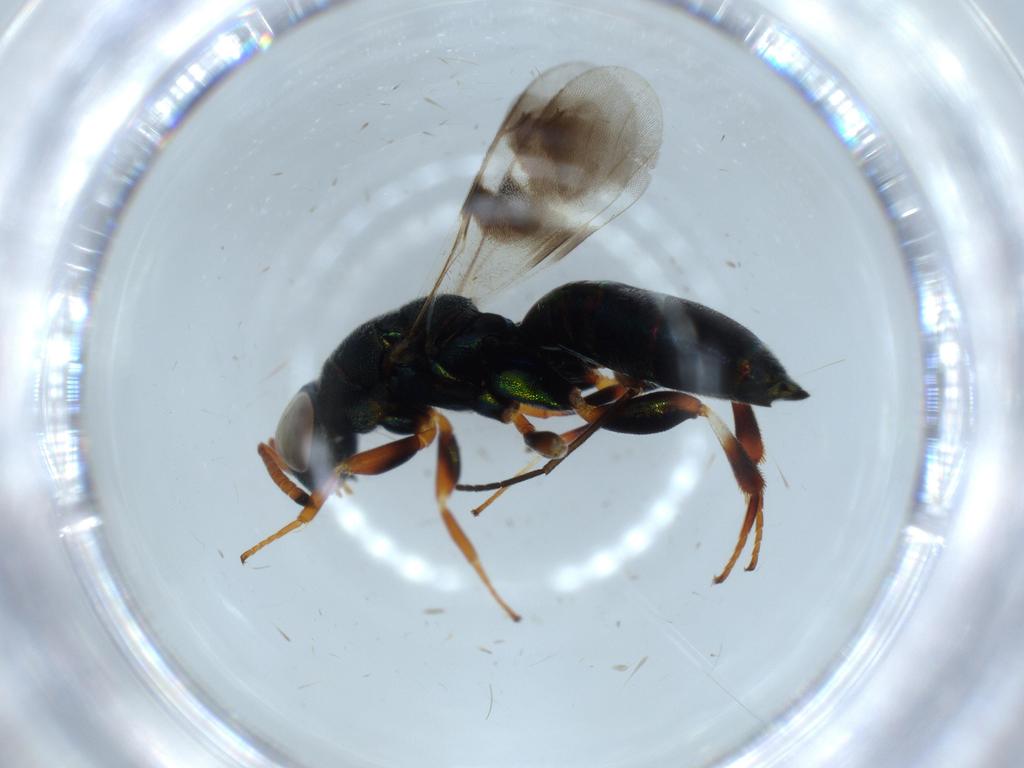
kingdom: Animalia
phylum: Arthropoda
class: Insecta
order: Hymenoptera
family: Cleonyminae
